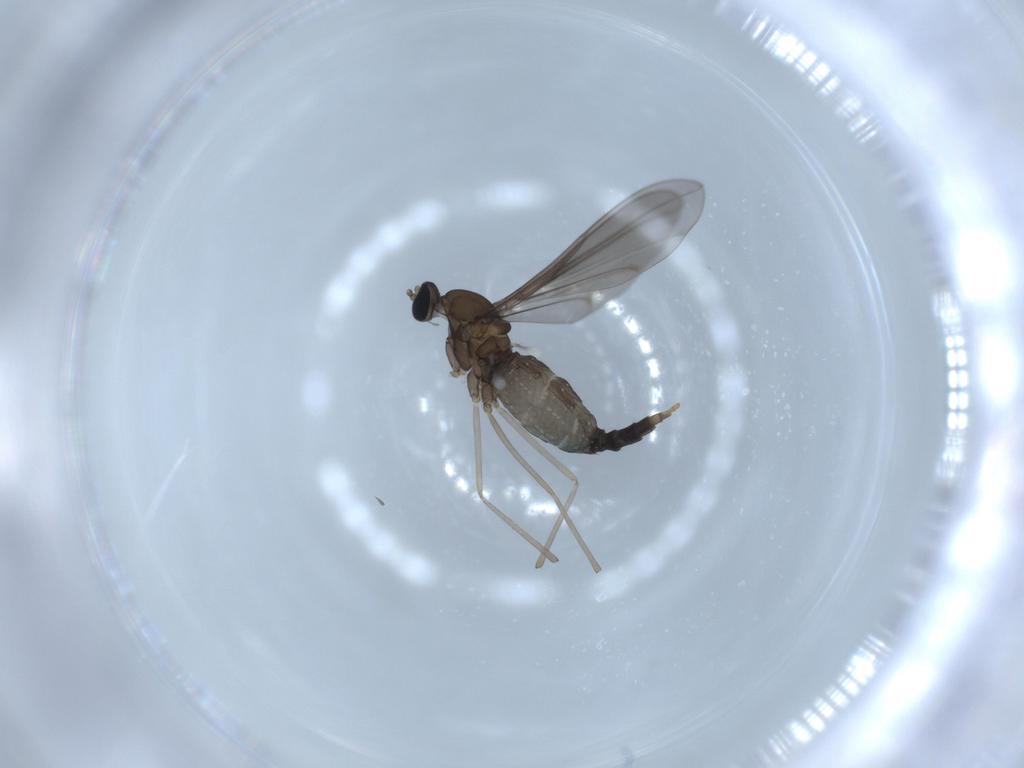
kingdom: Animalia
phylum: Arthropoda
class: Insecta
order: Diptera
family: Cecidomyiidae
